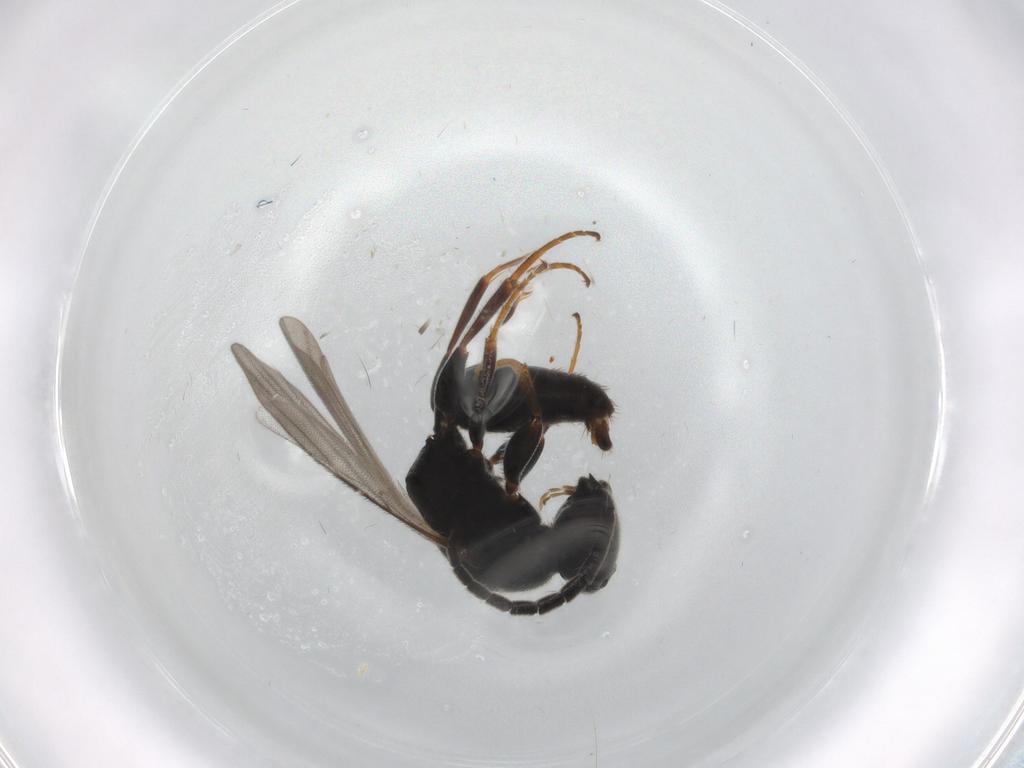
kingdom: Animalia
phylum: Arthropoda
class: Insecta
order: Hymenoptera
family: Bethylidae
